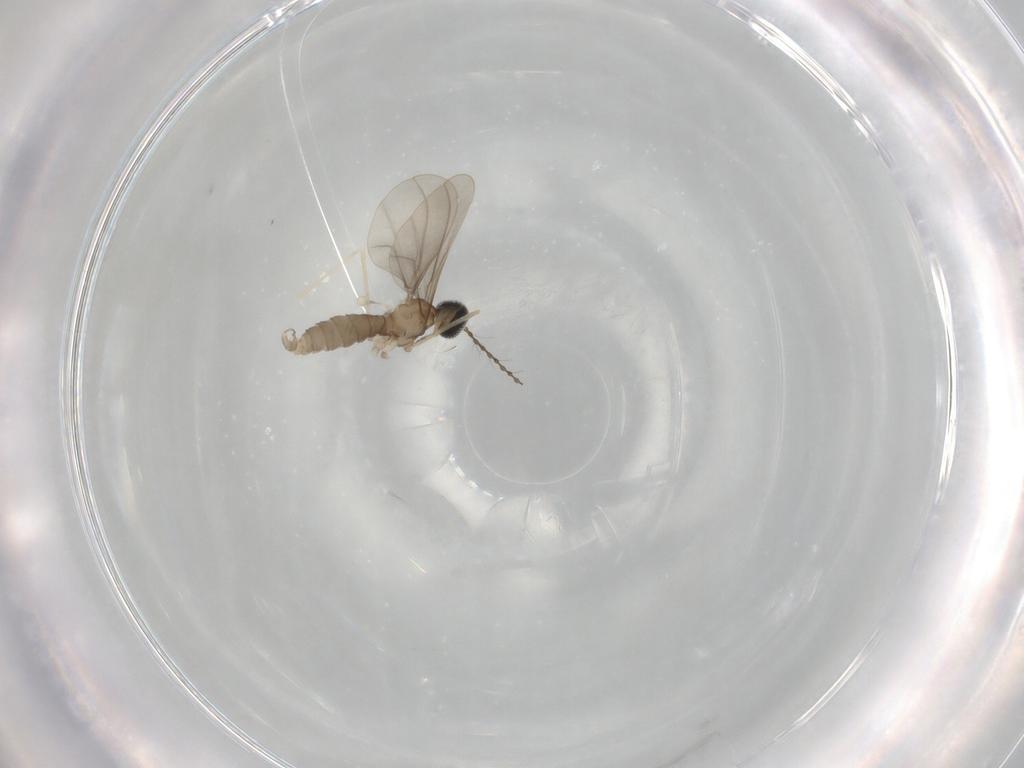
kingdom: Animalia
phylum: Arthropoda
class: Insecta
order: Diptera
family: Cecidomyiidae
